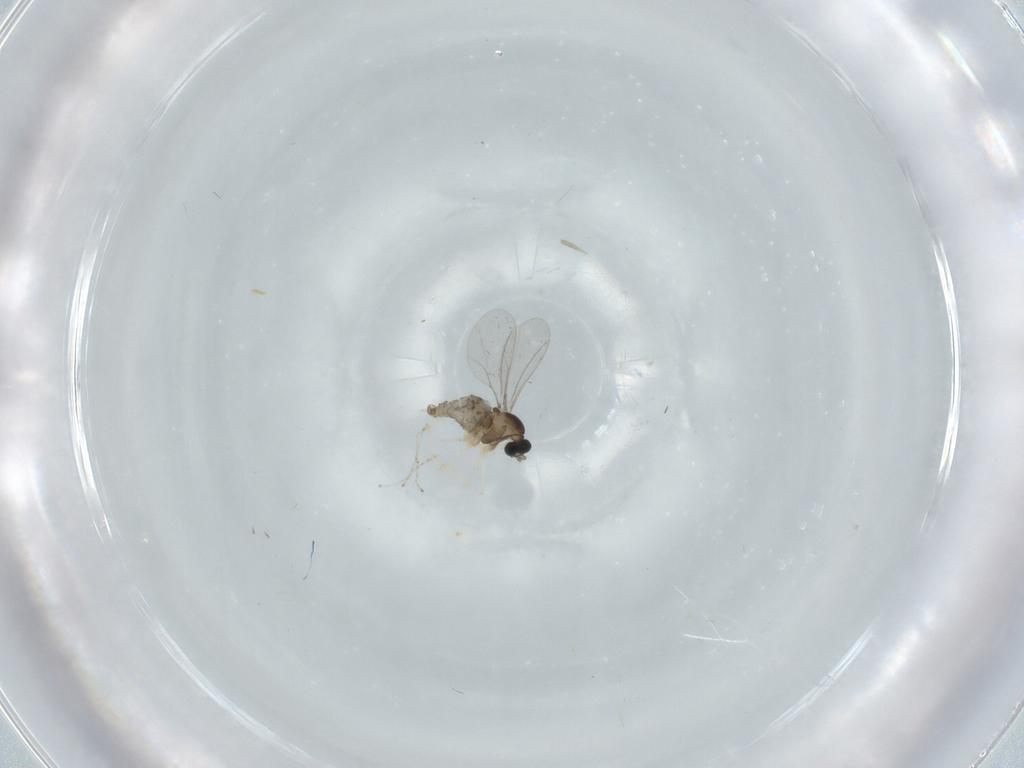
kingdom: Animalia
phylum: Arthropoda
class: Insecta
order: Diptera
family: Cecidomyiidae
